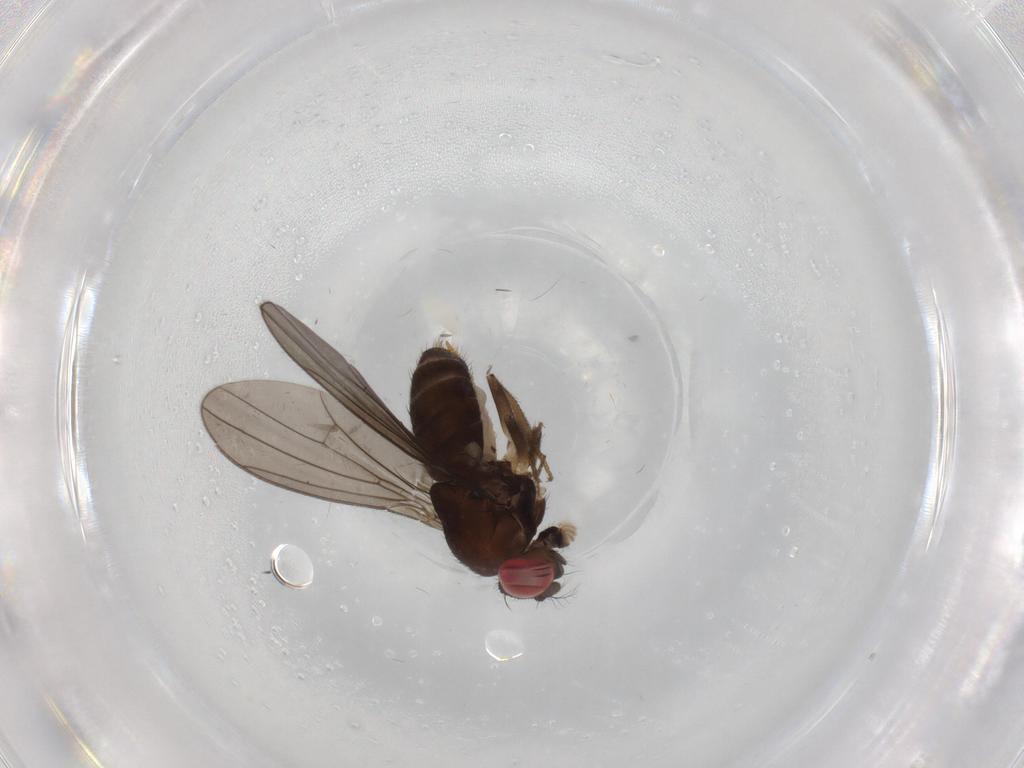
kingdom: Animalia
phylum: Arthropoda
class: Insecta
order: Diptera
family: Drosophilidae
